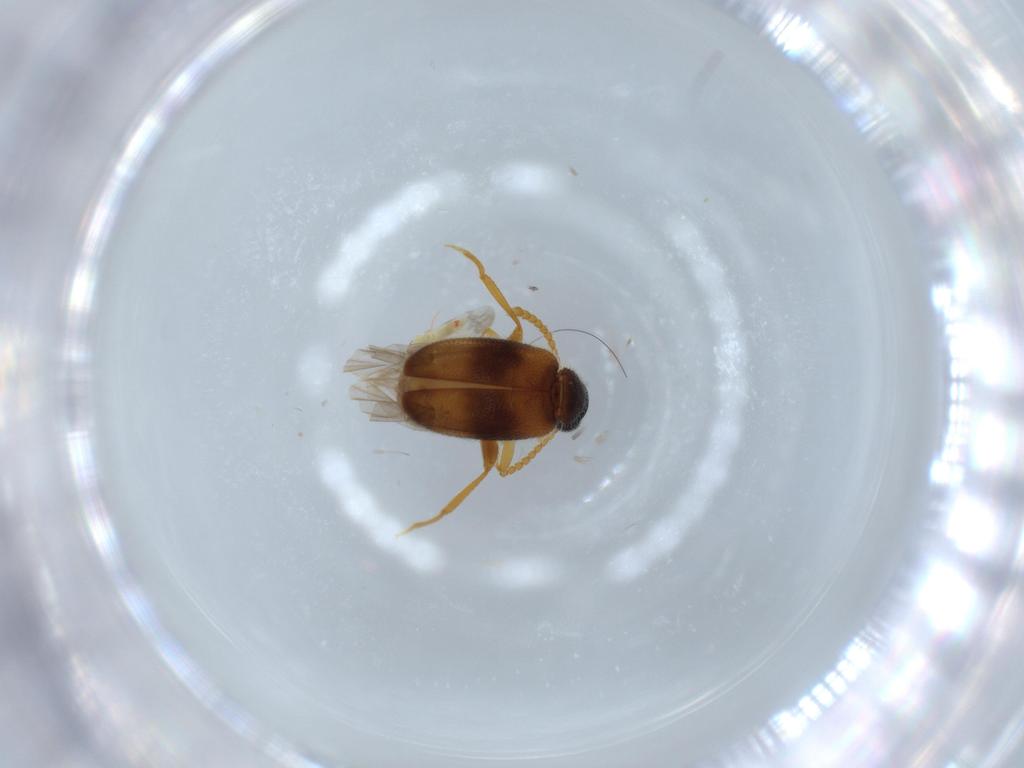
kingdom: Animalia
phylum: Arthropoda
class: Insecta
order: Coleoptera
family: Aderidae
